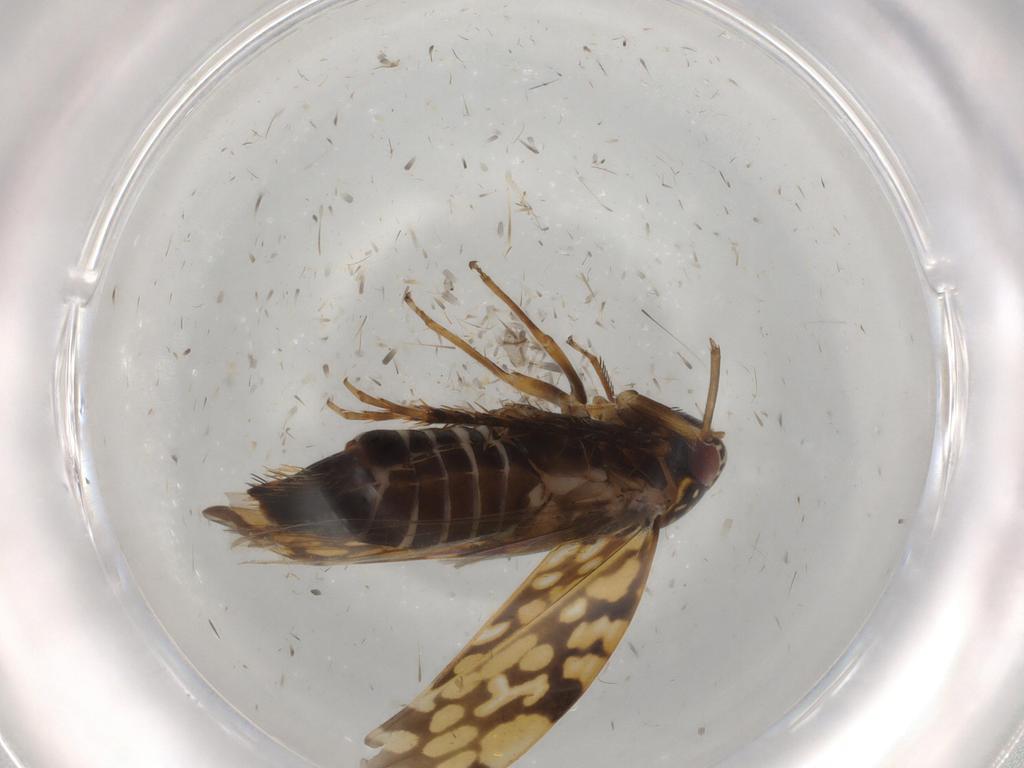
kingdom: Animalia
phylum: Arthropoda
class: Insecta
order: Hemiptera
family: Cicadellidae
